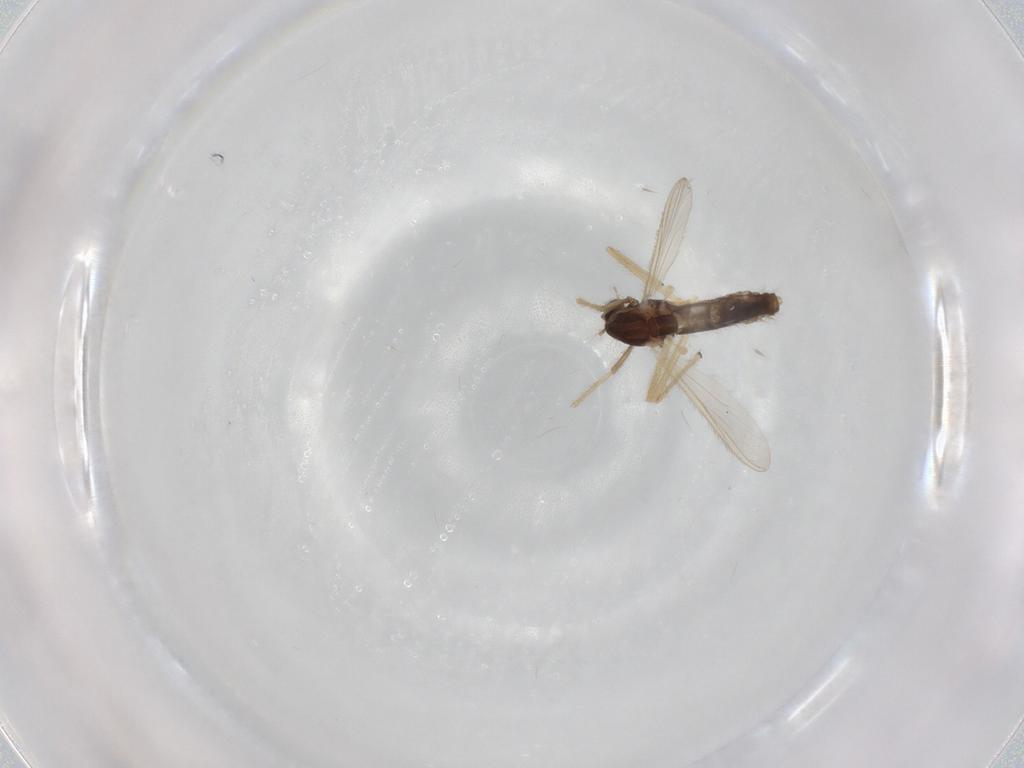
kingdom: Animalia
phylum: Arthropoda
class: Insecta
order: Diptera
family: Chironomidae
